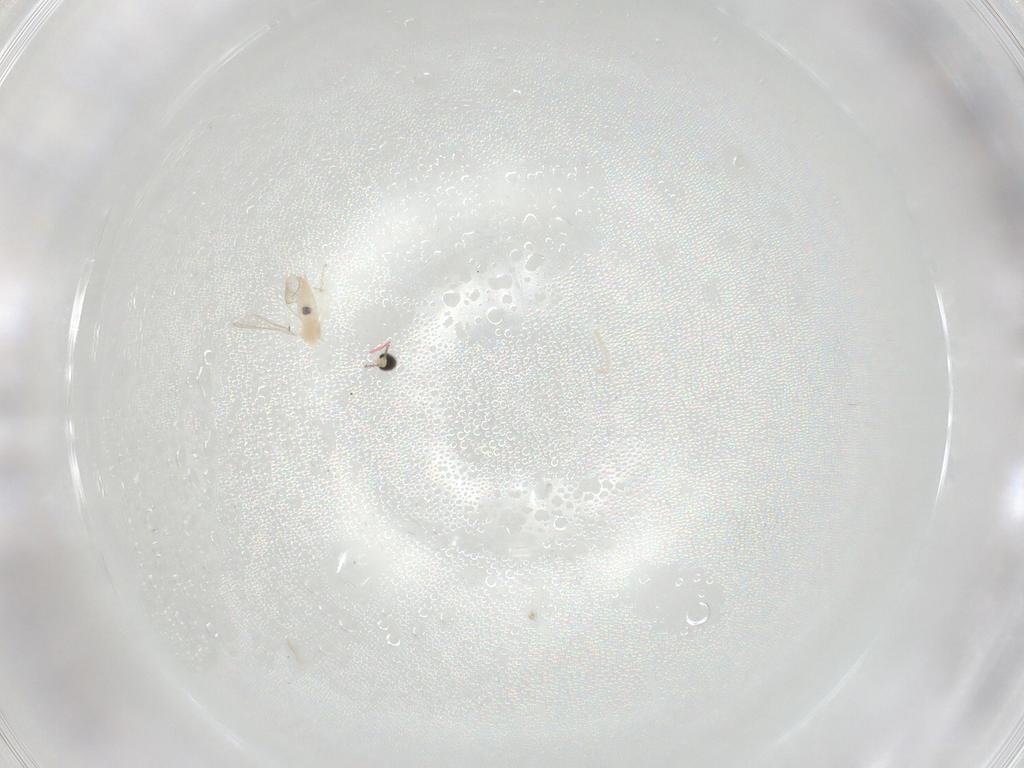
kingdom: Animalia
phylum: Arthropoda
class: Insecta
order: Diptera
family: Cecidomyiidae
